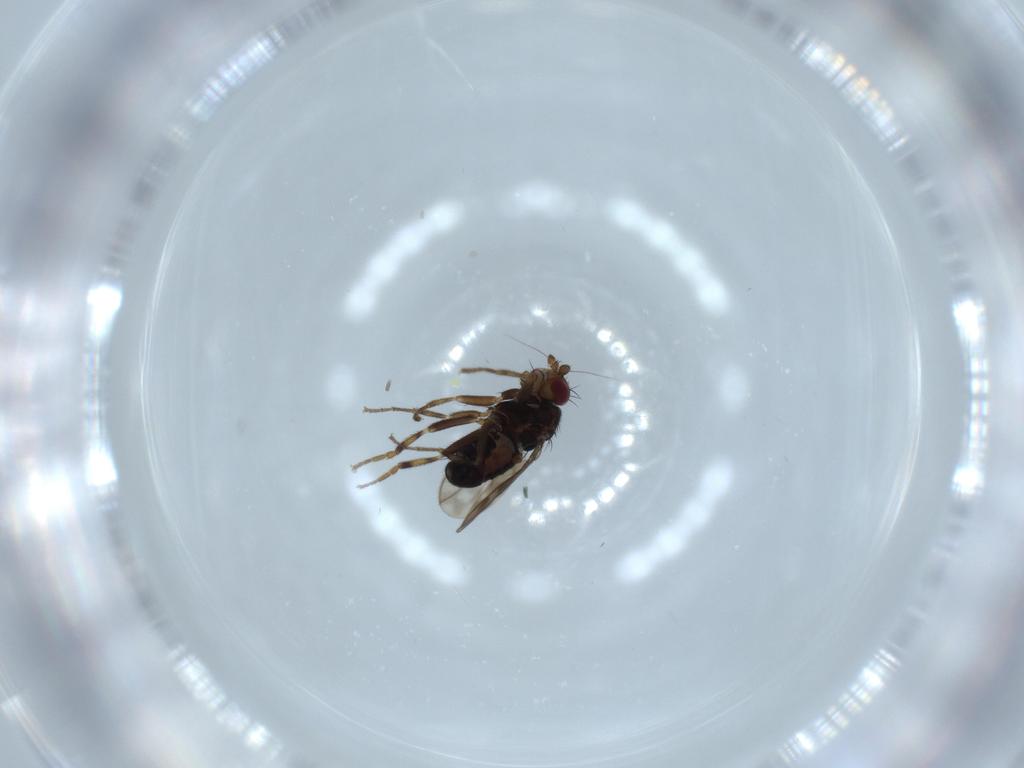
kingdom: Animalia
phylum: Arthropoda
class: Insecta
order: Diptera
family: Sphaeroceridae
